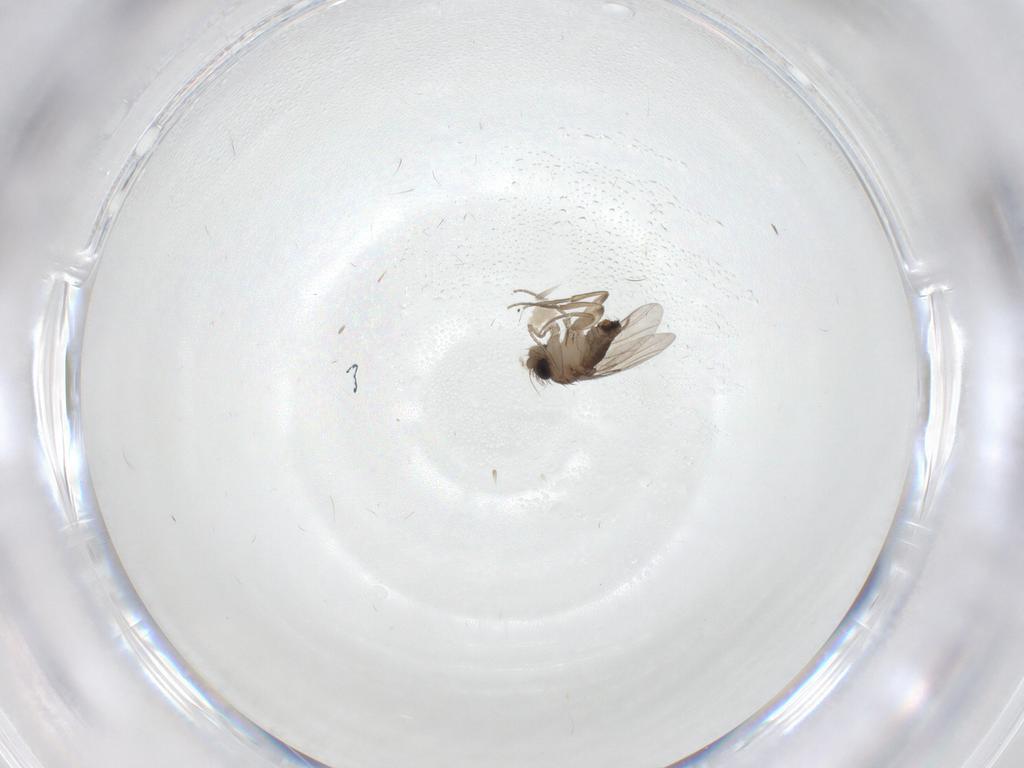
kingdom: Animalia
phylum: Arthropoda
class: Insecta
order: Diptera
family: Phoridae
